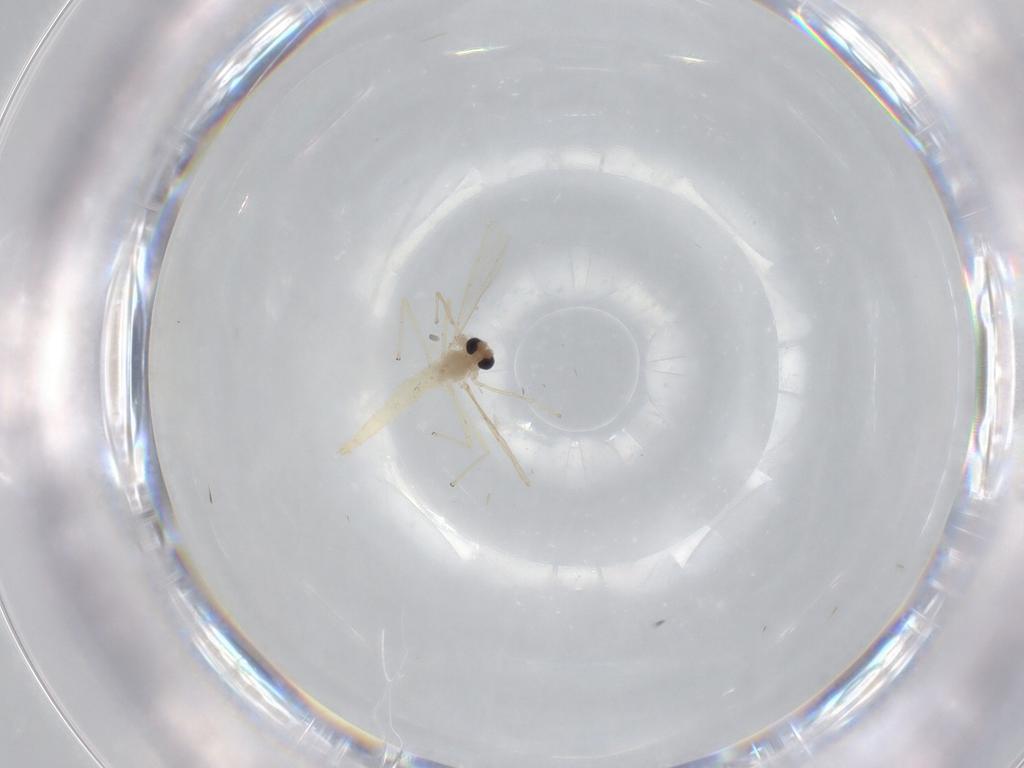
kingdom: Animalia
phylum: Arthropoda
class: Insecta
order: Diptera
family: Chironomidae
